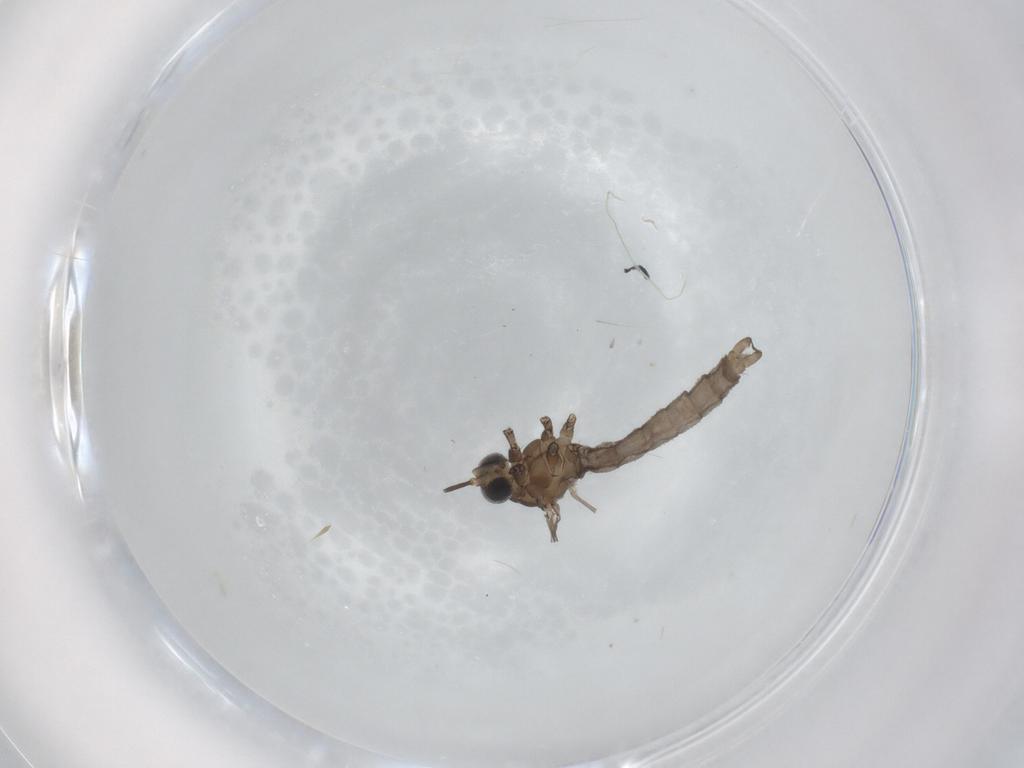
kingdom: Animalia
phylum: Arthropoda
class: Insecta
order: Diptera
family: Limoniidae
